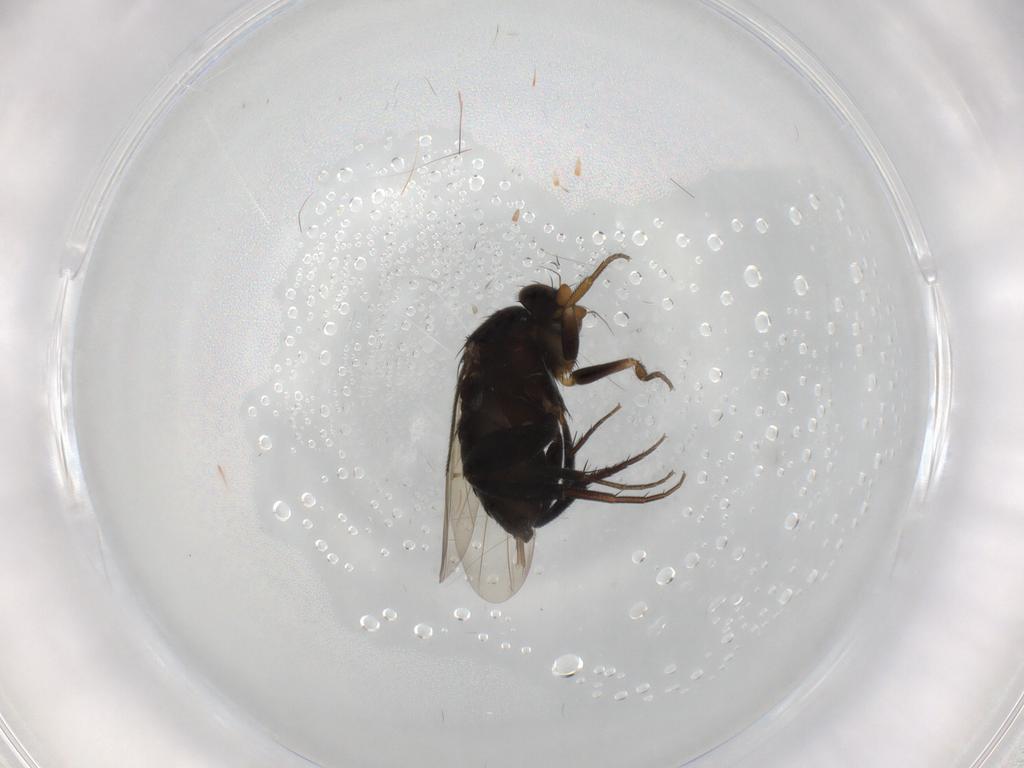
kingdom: Animalia
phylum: Arthropoda
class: Insecta
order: Diptera
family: Phoridae
